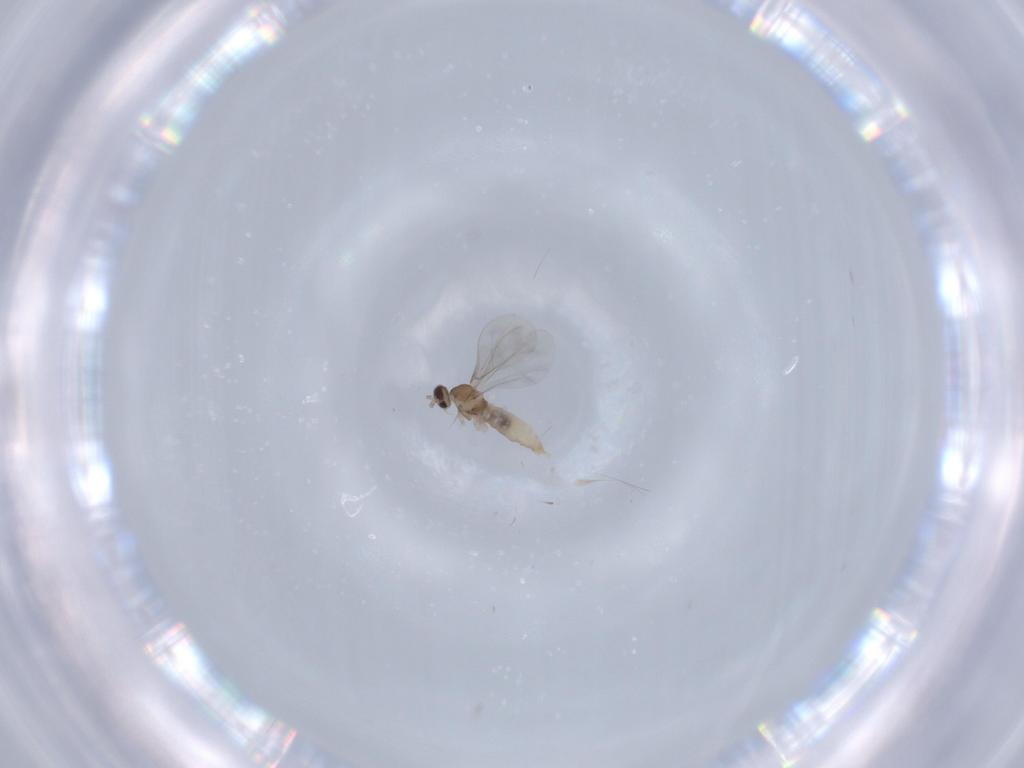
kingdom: Animalia
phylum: Arthropoda
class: Insecta
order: Diptera
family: Cecidomyiidae
